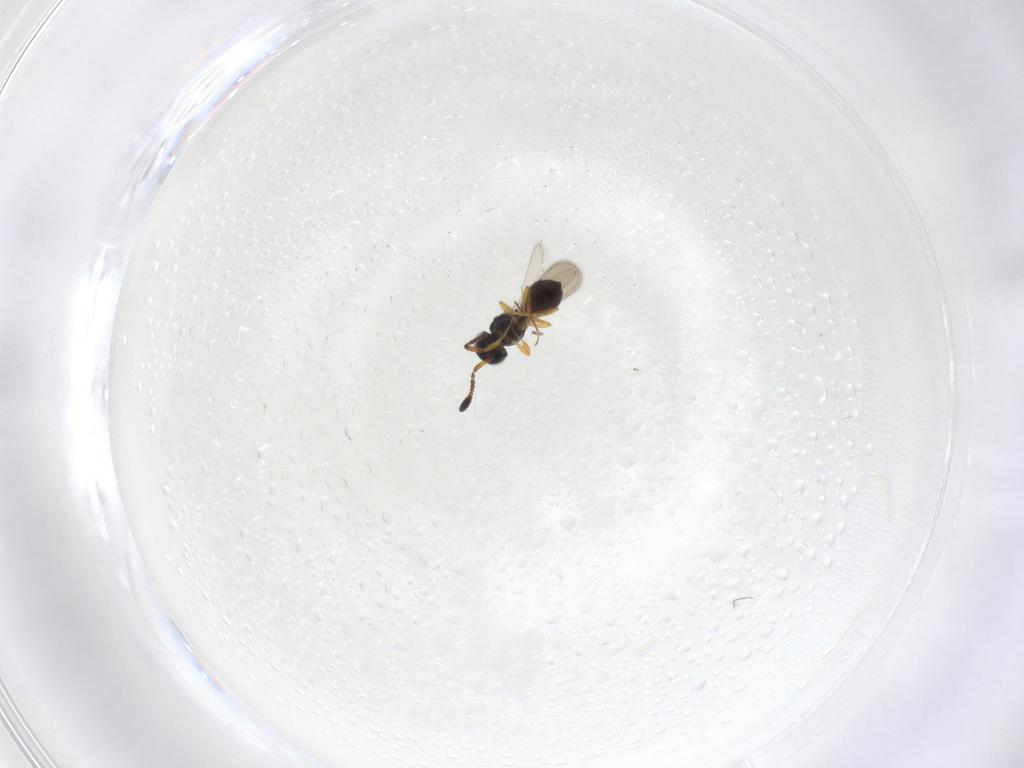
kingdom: Animalia
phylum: Arthropoda
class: Insecta
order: Hymenoptera
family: Scelionidae
